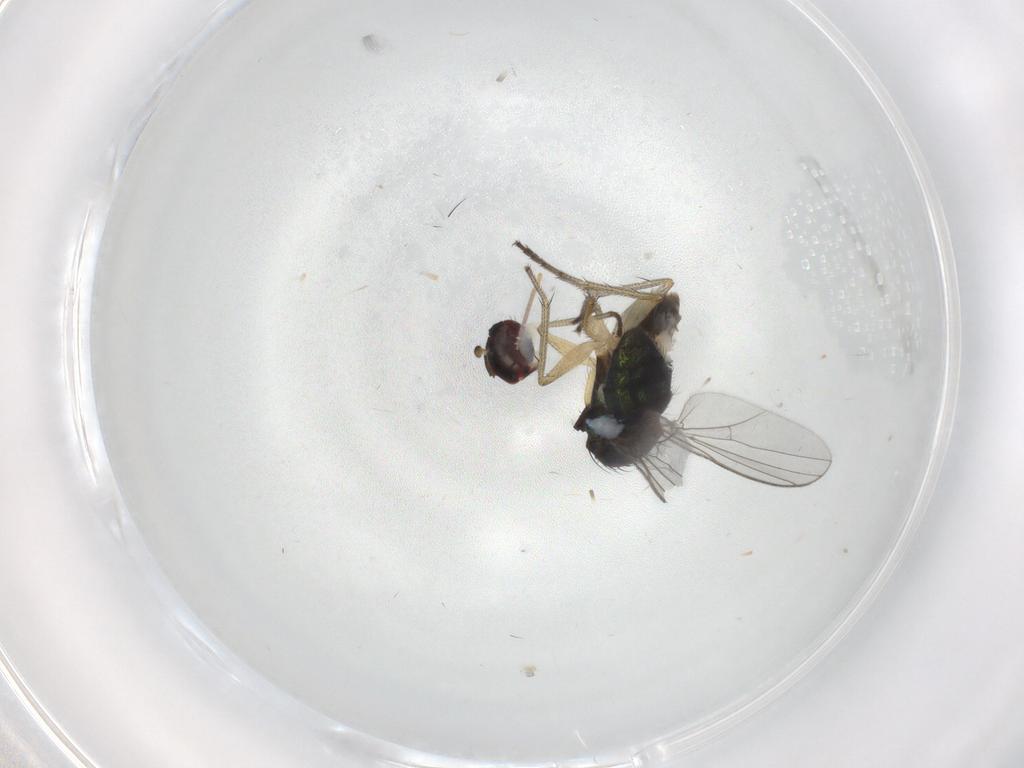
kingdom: Animalia
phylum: Arthropoda
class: Insecta
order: Diptera
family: Dolichopodidae
